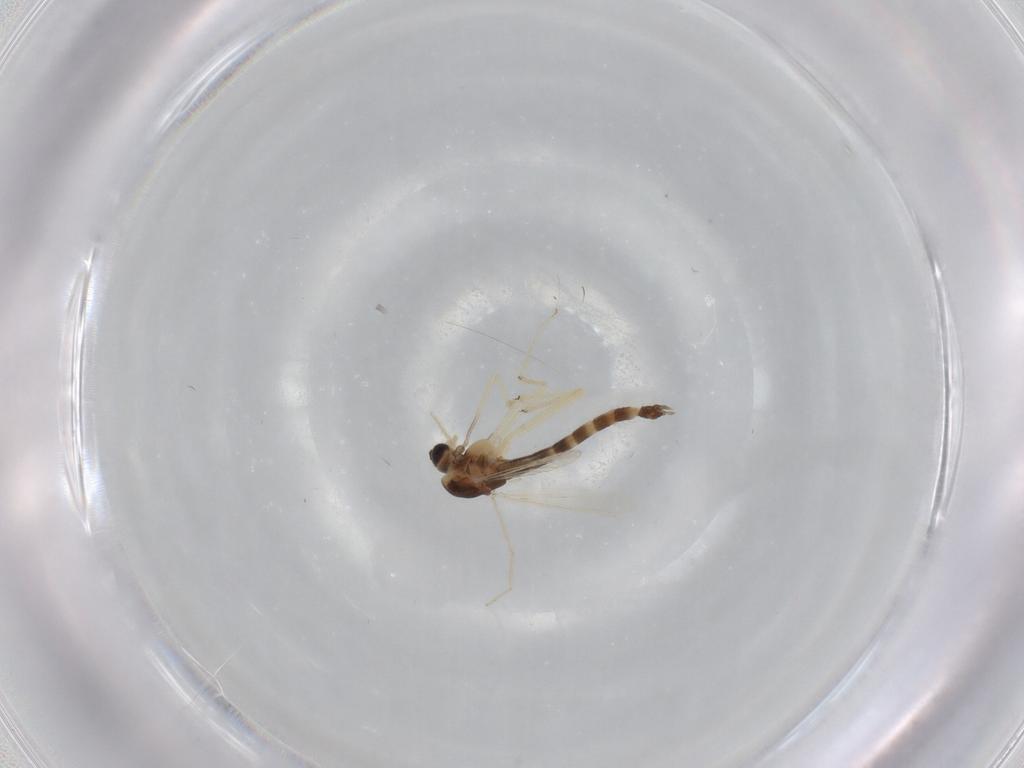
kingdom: Animalia
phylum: Arthropoda
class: Insecta
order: Diptera
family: Chironomidae
